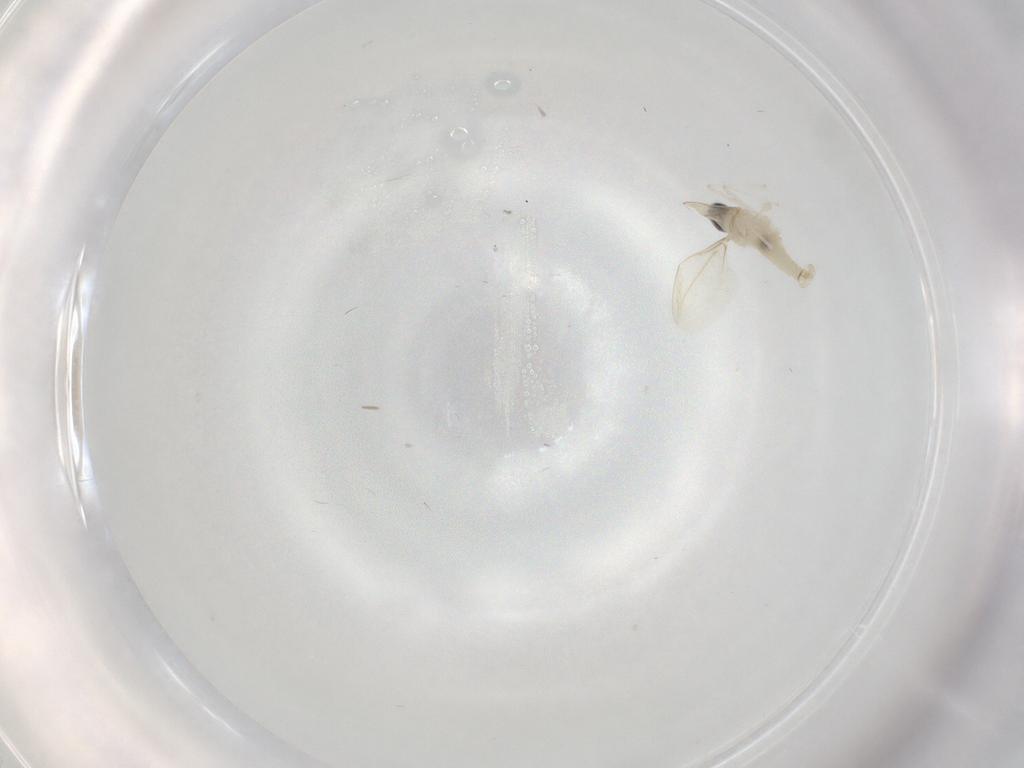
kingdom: Animalia
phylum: Arthropoda
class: Insecta
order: Diptera
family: Cecidomyiidae
